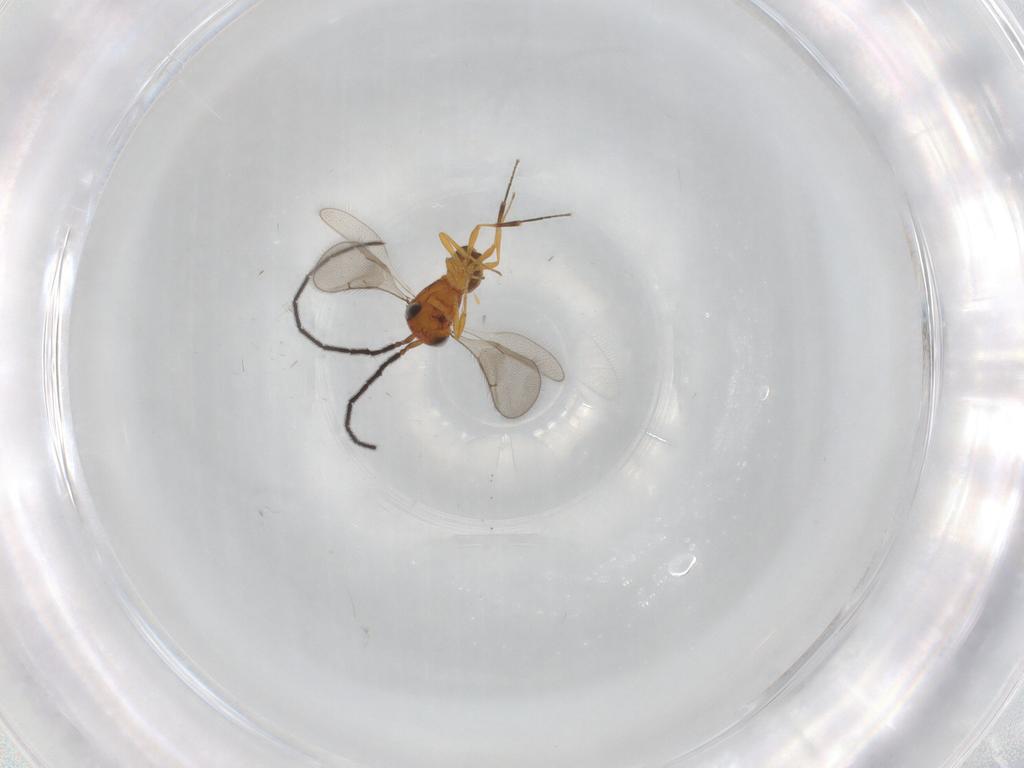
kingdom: Animalia
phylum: Arthropoda
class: Insecta
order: Hymenoptera
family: Scelionidae
